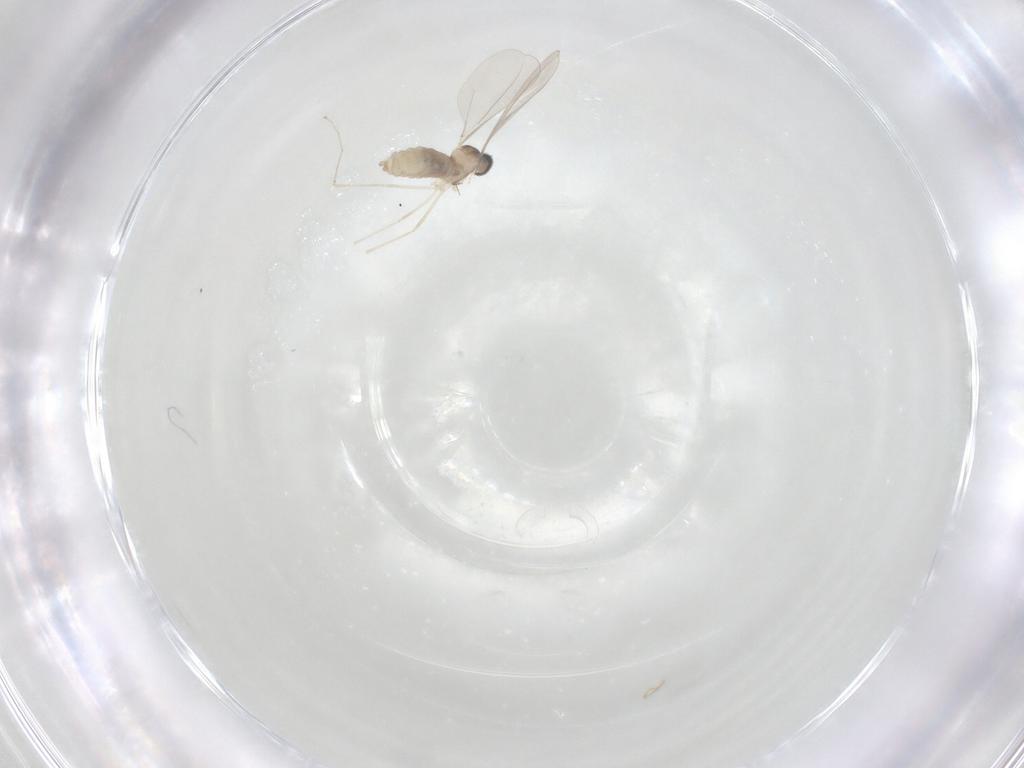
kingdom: Animalia
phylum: Arthropoda
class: Insecta
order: Diptera
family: Cecidomyiidae
